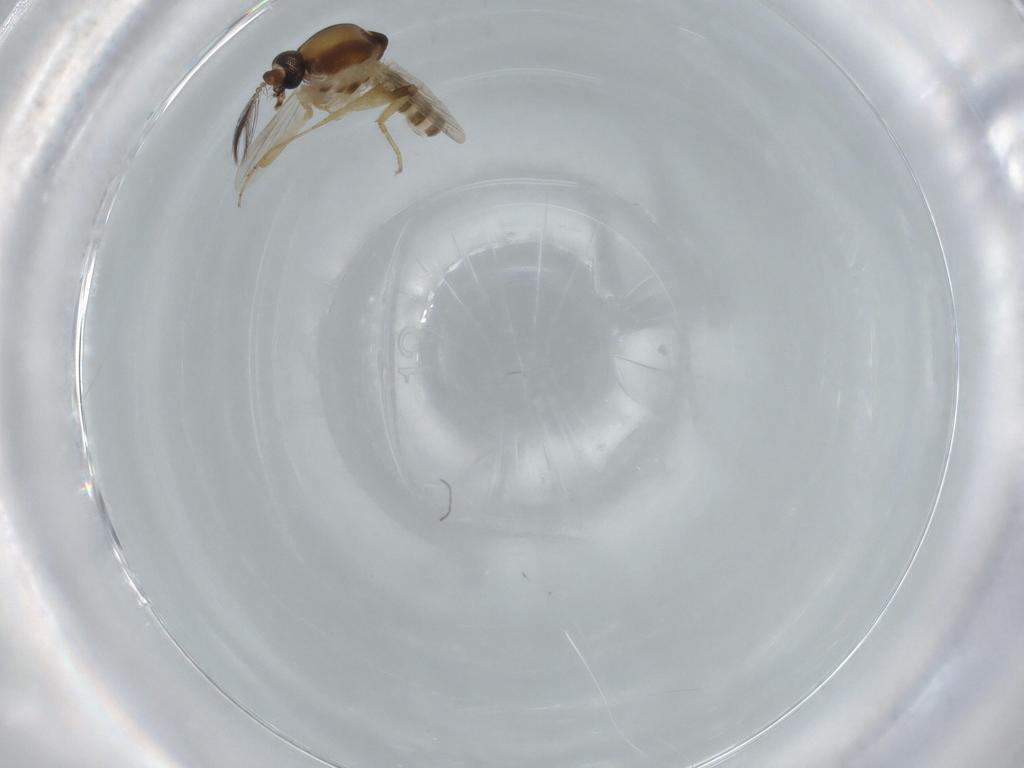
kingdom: Animalia
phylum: Arthropoda
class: Insecta
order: Diptera
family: Ceratopogonidae
